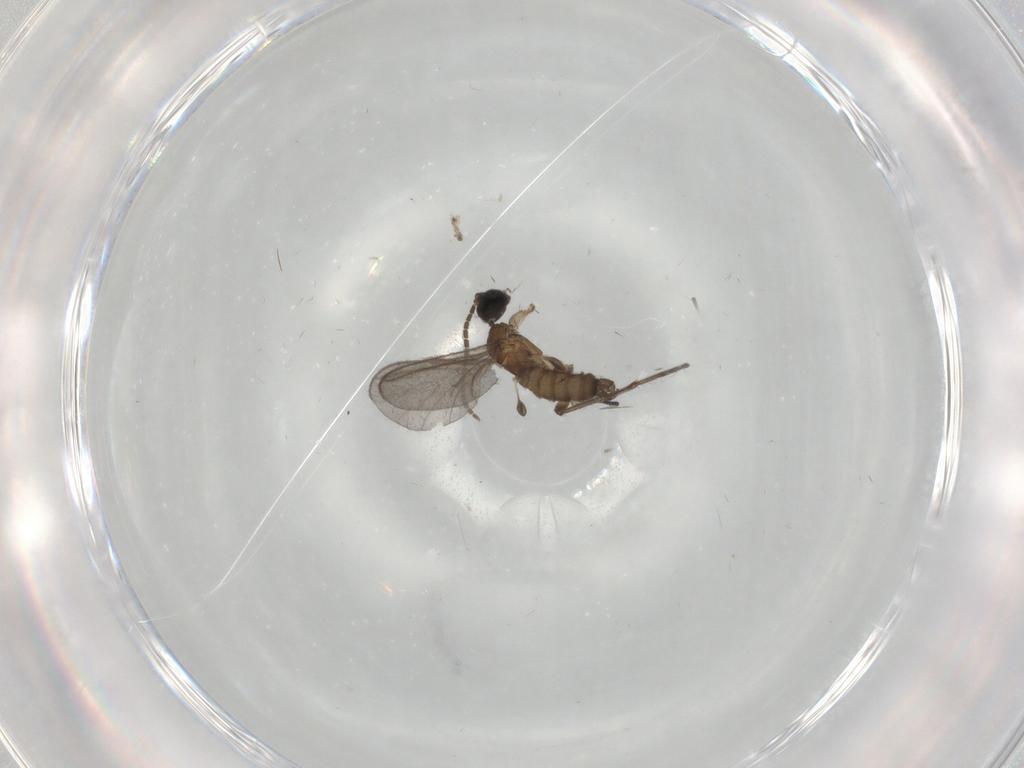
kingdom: Animalia
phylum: Arthropoda
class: Insecta
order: Diptera
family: Sciaridae
